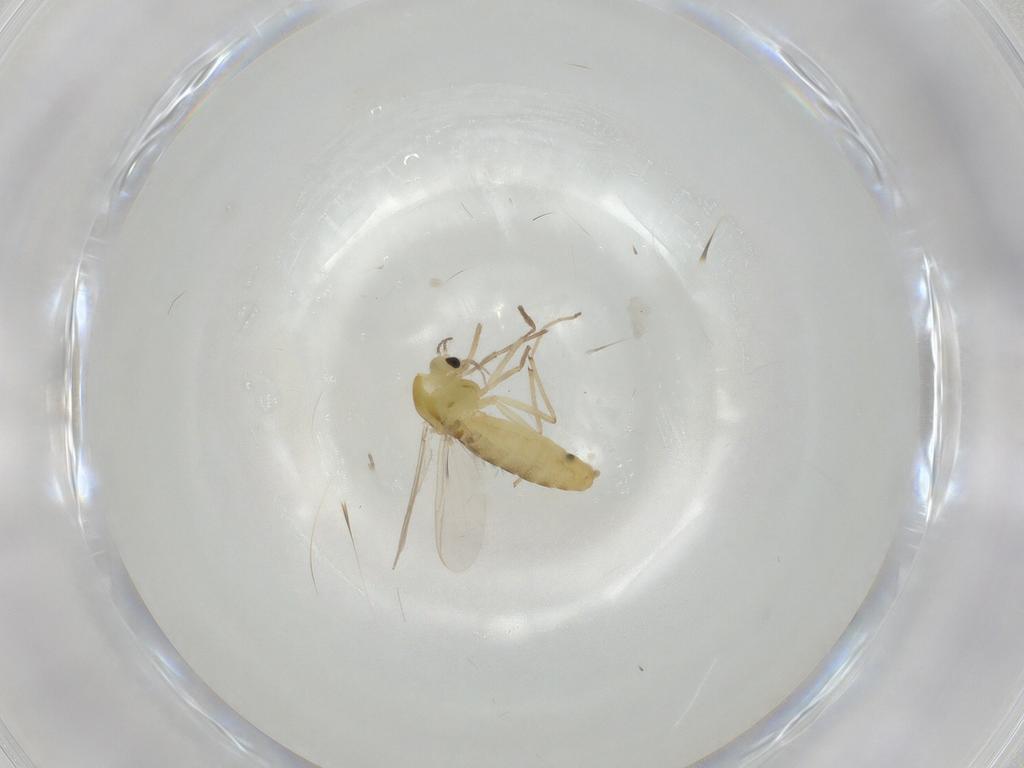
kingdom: Animalia
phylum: Arthropoda
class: Insecta
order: Diptera
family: Chironomidae
